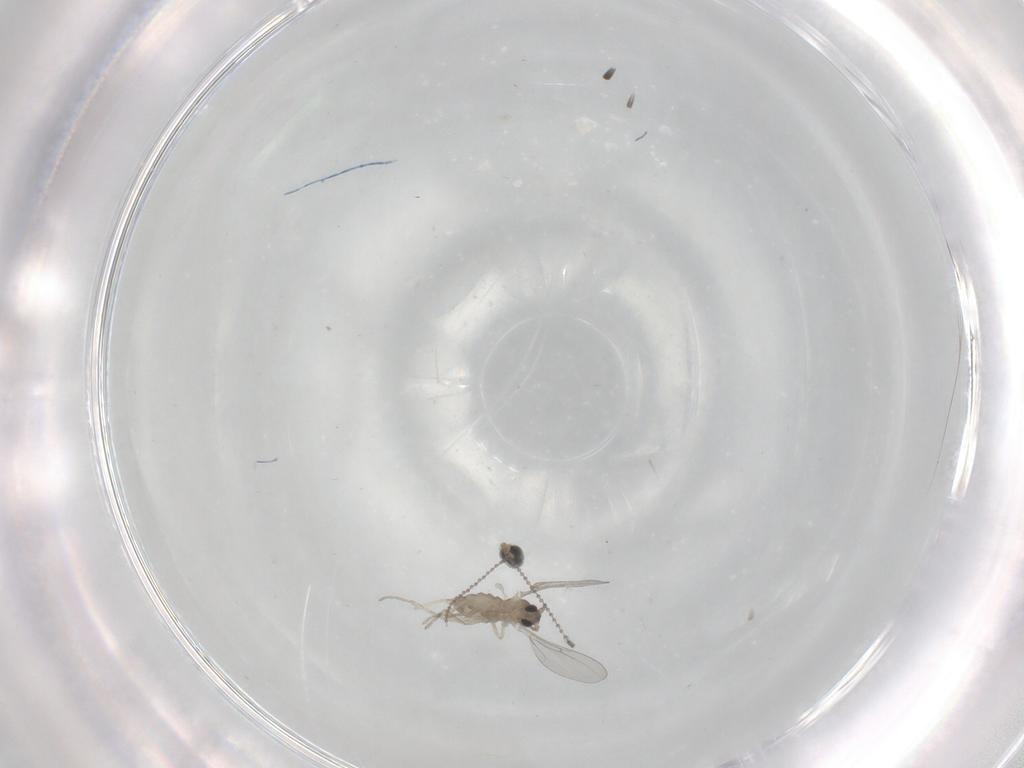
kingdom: Animalia
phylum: Arthropoda
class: Insecta
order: Diptera
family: Cecidomyiidae
